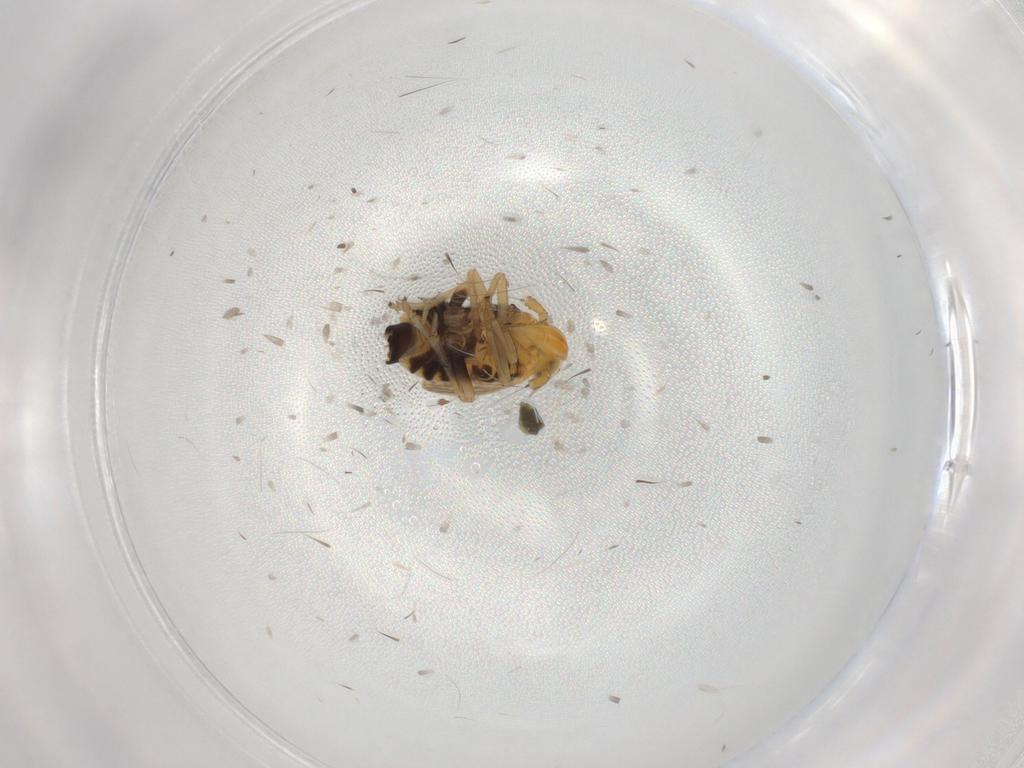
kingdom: Animalia
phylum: Arthropoda
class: Insecta
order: Hemiptera
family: Delphacidae
